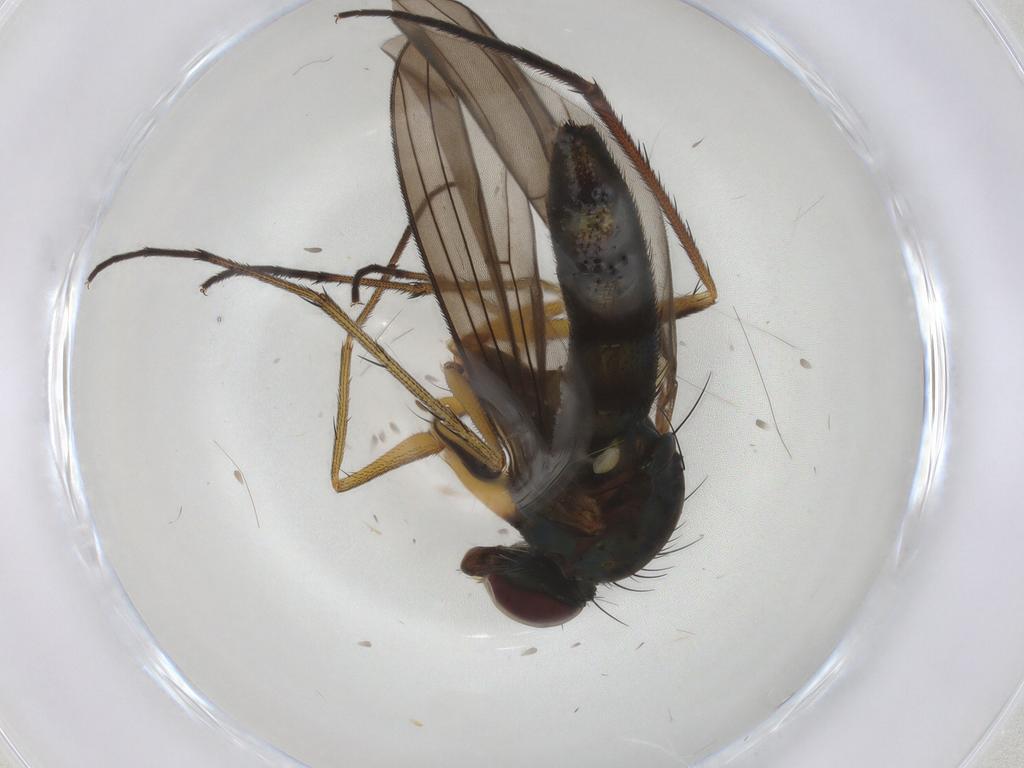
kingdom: Animalia
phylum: Arthropoda
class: Insecta
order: Diptera
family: Dolichopodidae
